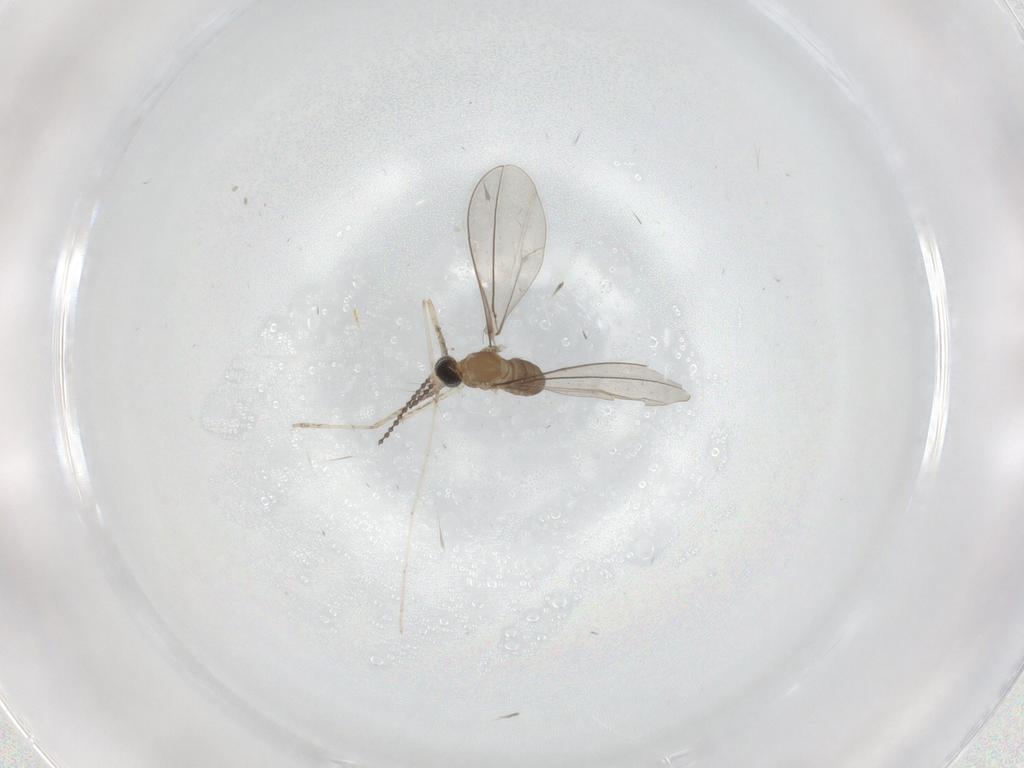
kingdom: Animalia
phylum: Arthropoda
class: Insecta
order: Diptera
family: Cecidomyiidae
